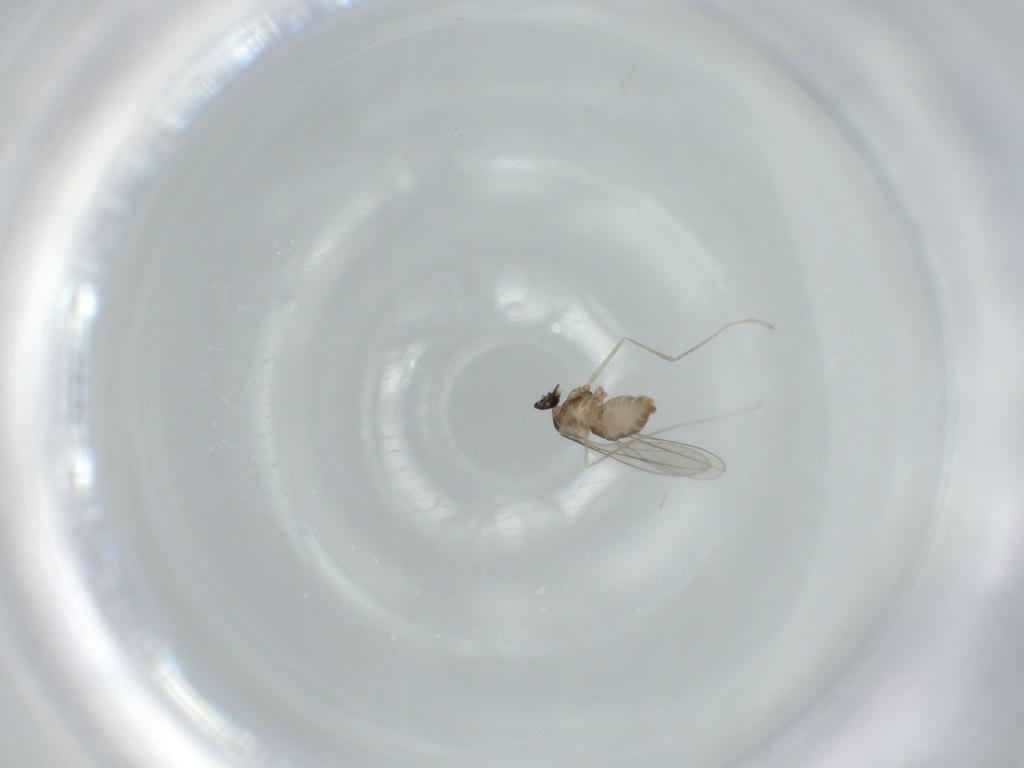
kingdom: Animalia
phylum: Arthropoda
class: Insecta
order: Diptera
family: Cecidomyiidae
